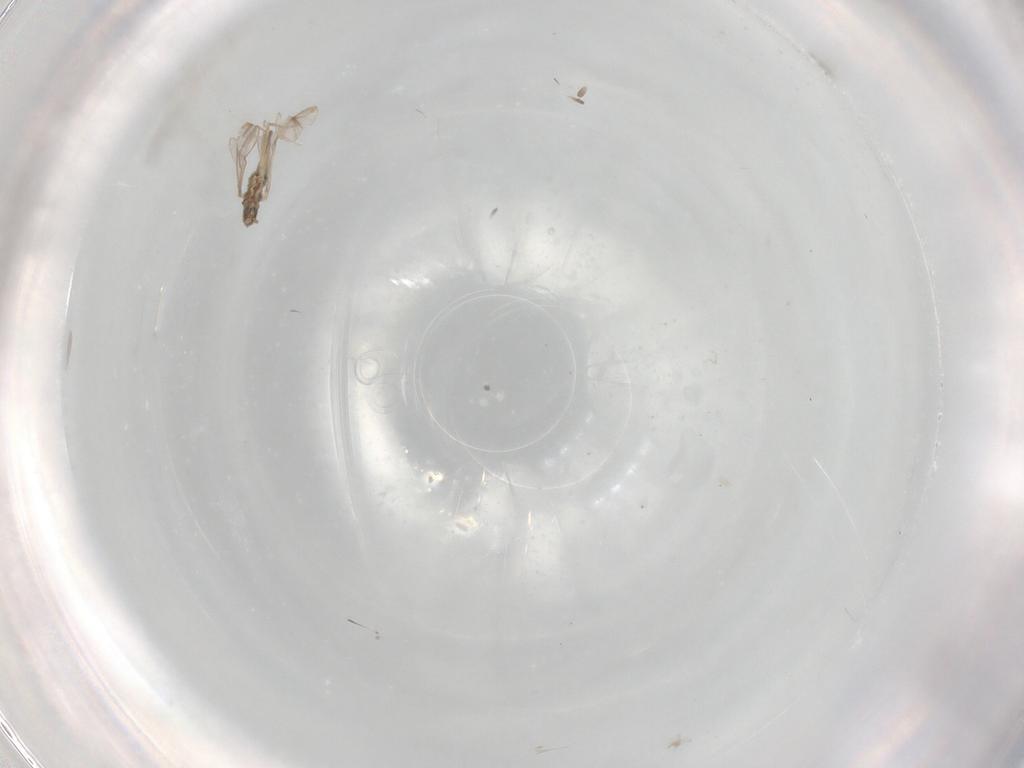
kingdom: Animalia
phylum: Arthropoda
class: Insecta
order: Diptera
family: Cecidomyiidae
